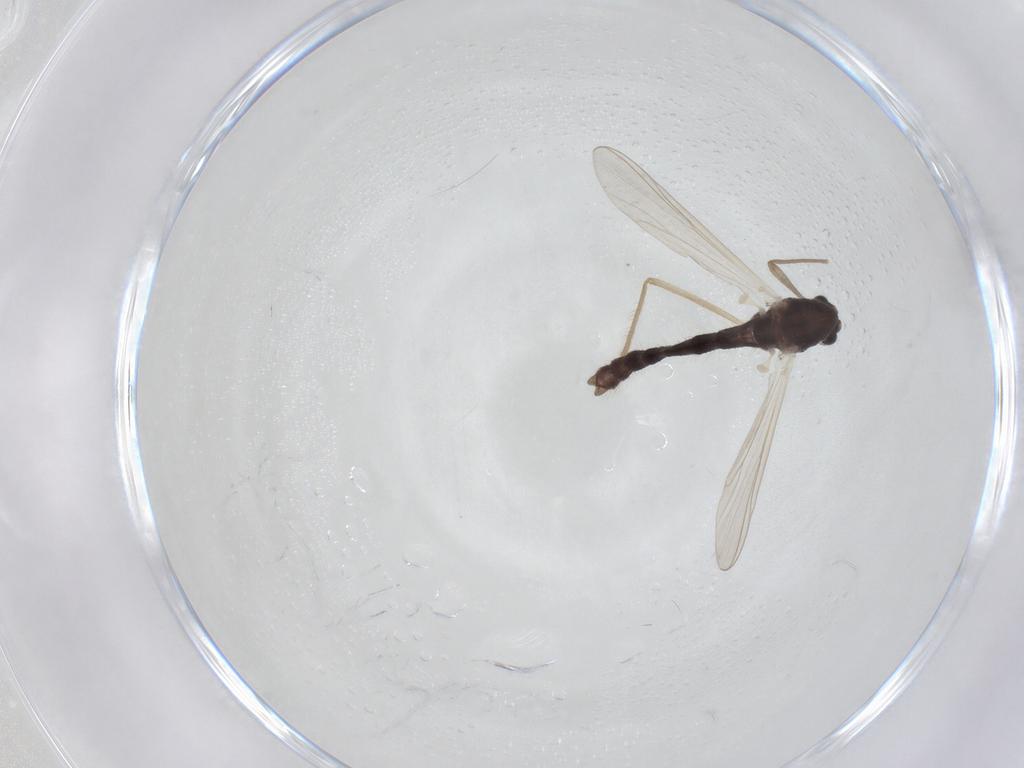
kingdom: Animalia
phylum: Arthropoda
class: Insecta
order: Diptera
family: Chironomidae
